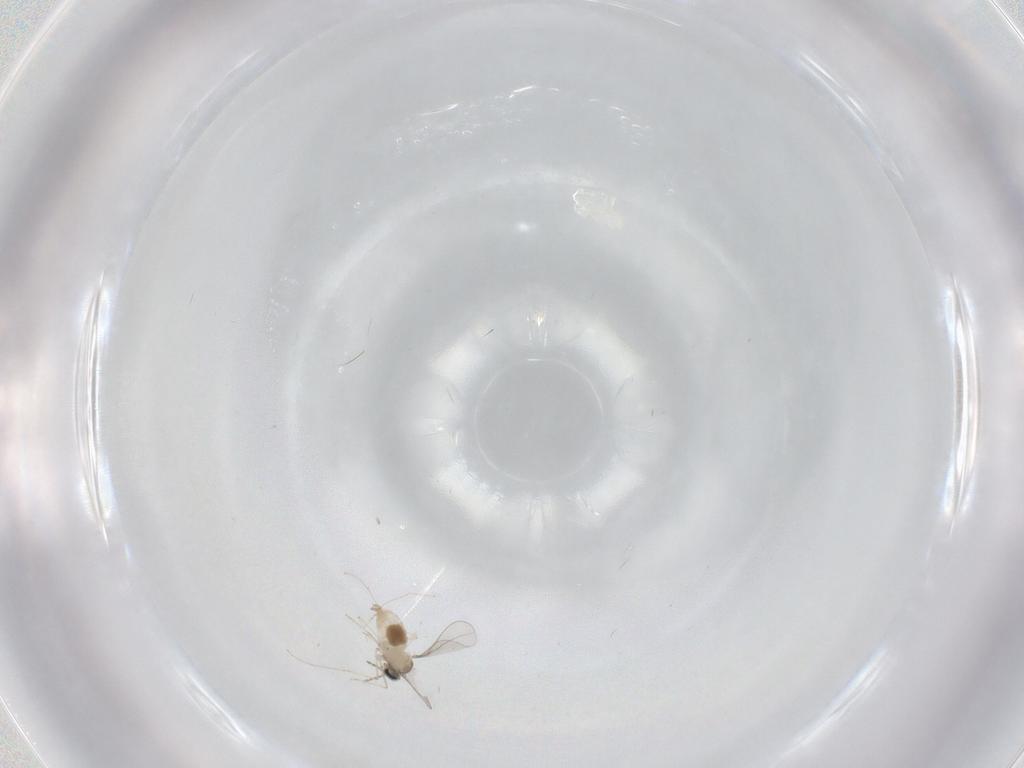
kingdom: Animalia
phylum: Arthropoda
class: Insecta
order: Diptera
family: Cecidomyiidae
